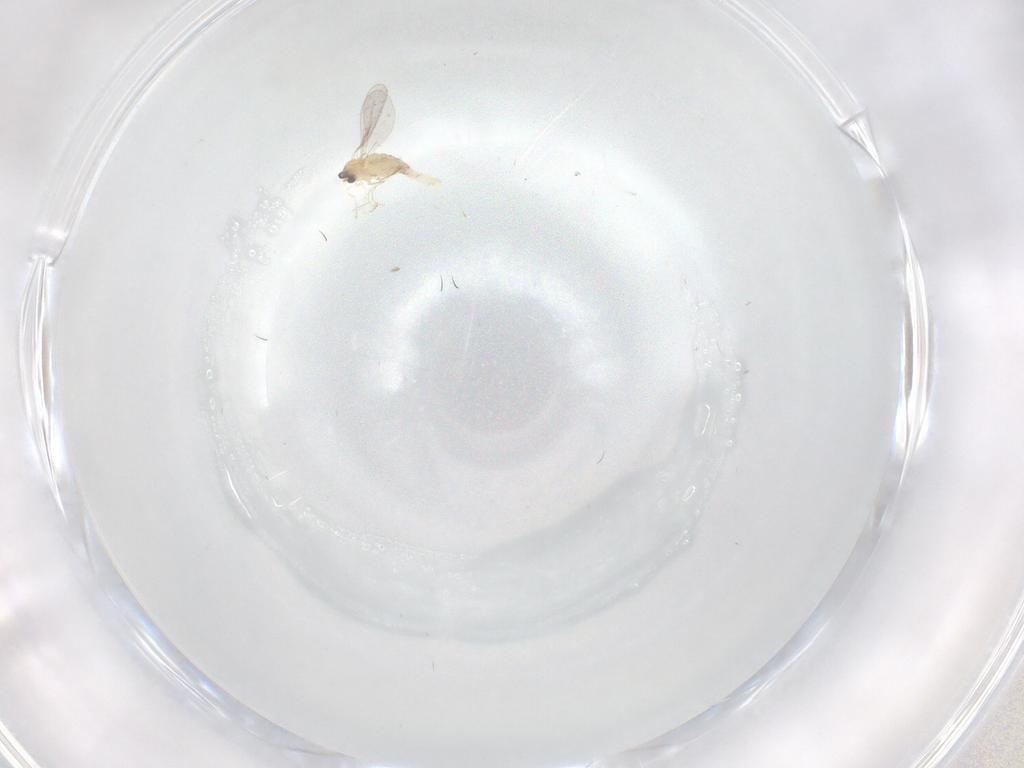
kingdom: Animalia
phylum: Arthropoda
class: Insecta
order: Diptera
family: Cecidomyiidae
